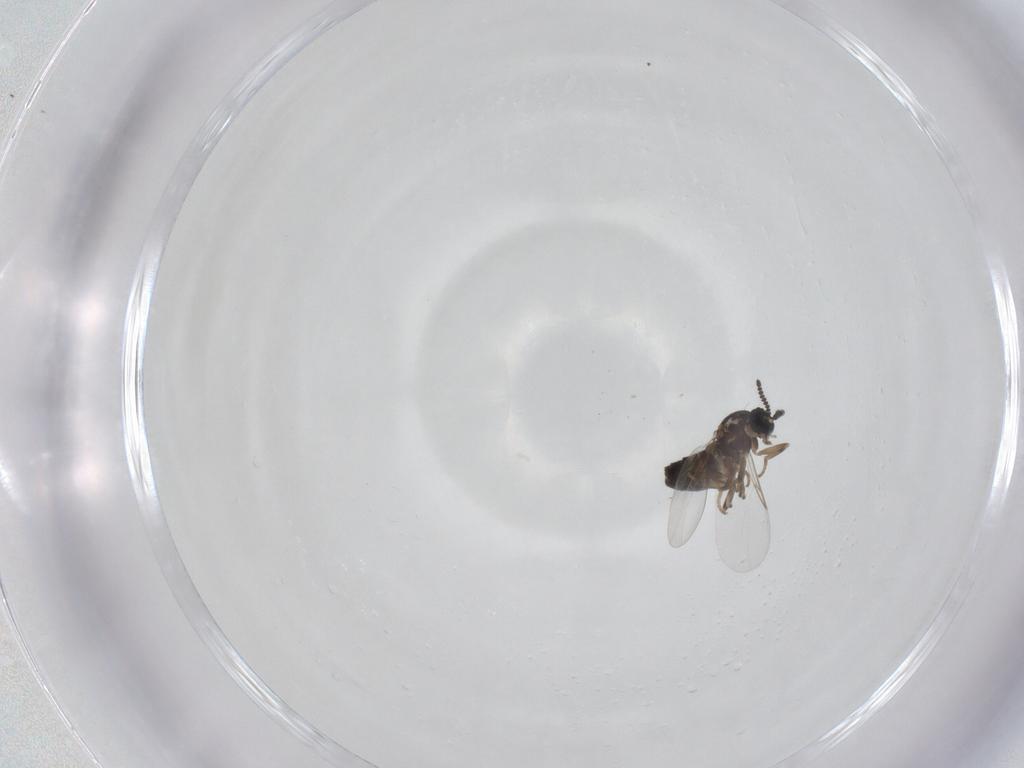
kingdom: Animalia
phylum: Arthropoda
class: Insecta
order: Diptera
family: Scatopsidae
